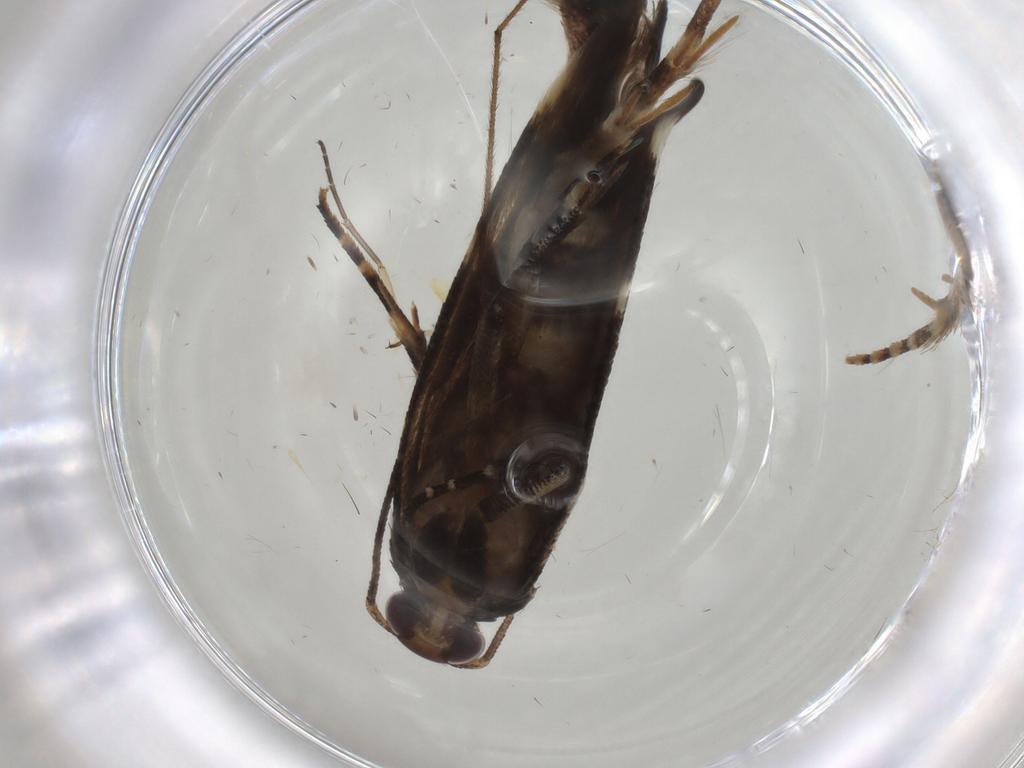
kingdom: Animalia
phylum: Arthropoda
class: Insecta
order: Lepidoptera
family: Gelechiidae
